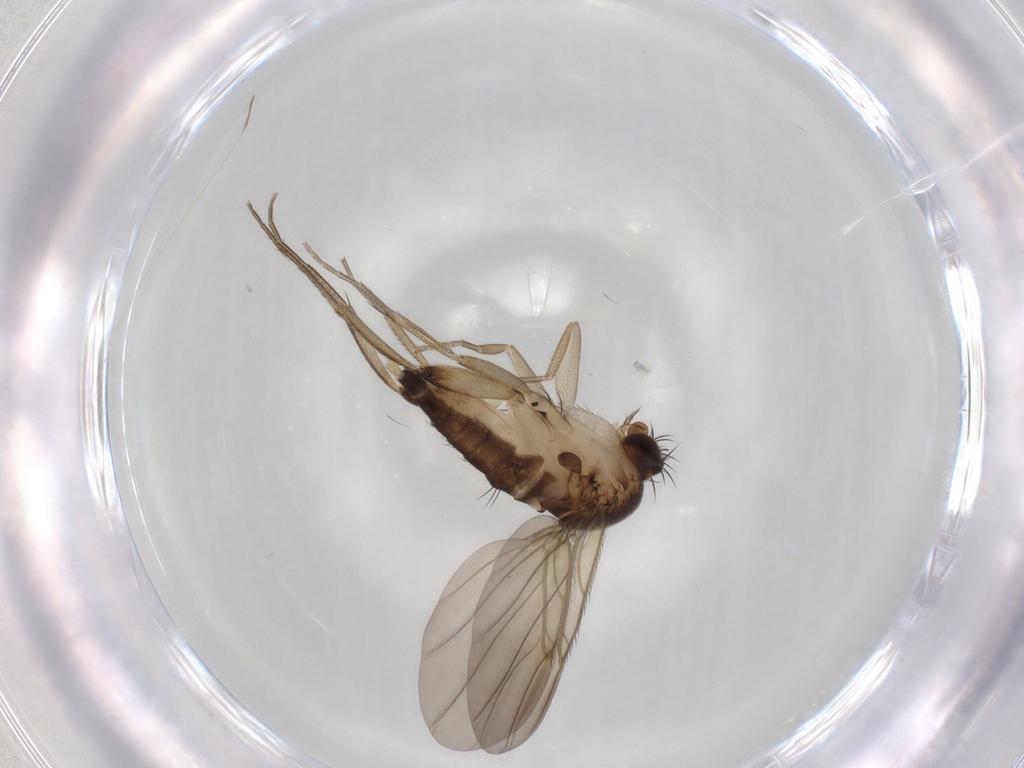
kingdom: Animalia
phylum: Arthropoda
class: Insecta
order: Diptera
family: Phoridae
